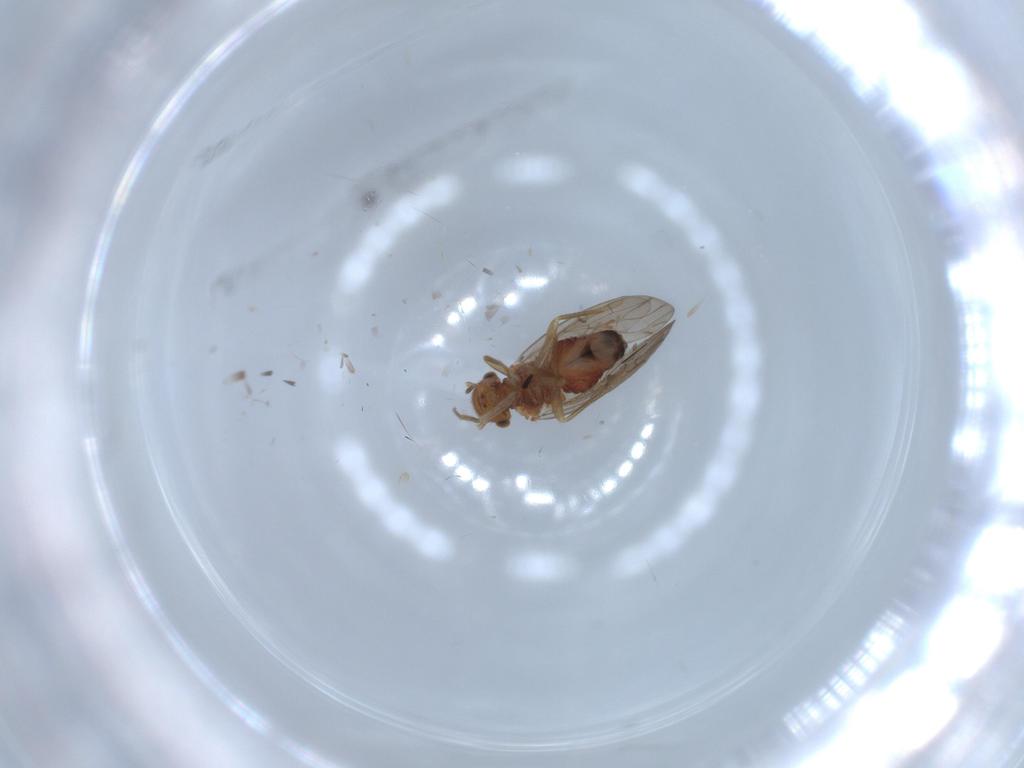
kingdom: Animalia
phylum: Arthropoda
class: Insecta
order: Psocodea
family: Ectopsocidae
